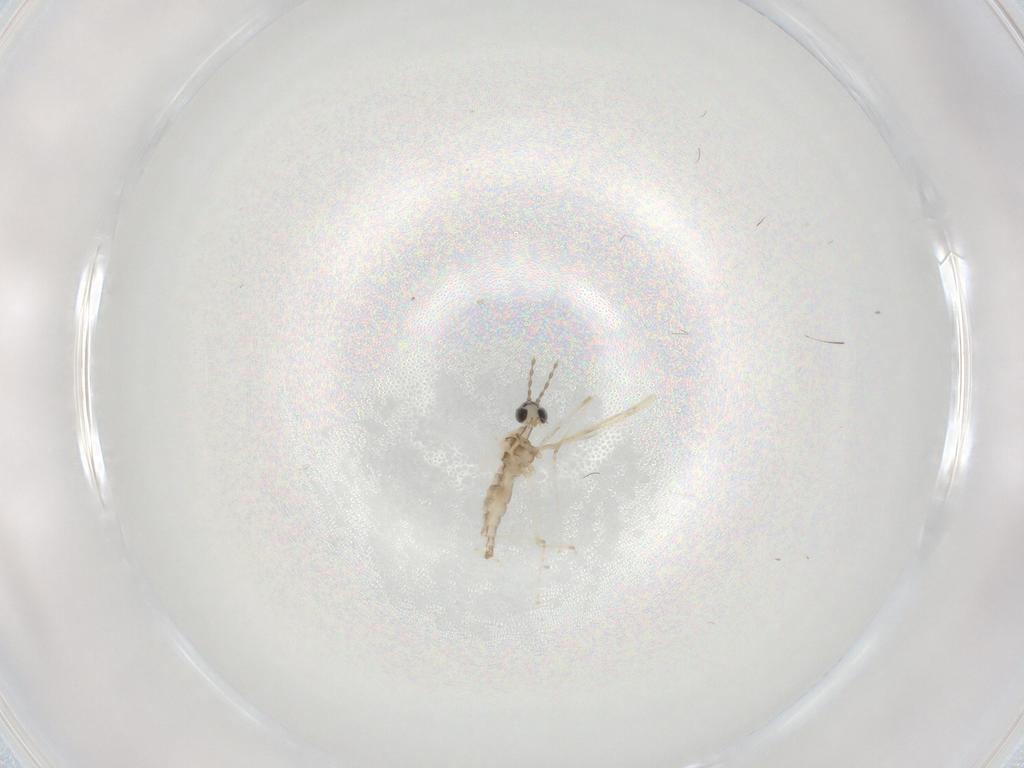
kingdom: Animalia
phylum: Arthropoda
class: Insecta
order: Diptera
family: Cecidomyiidae
